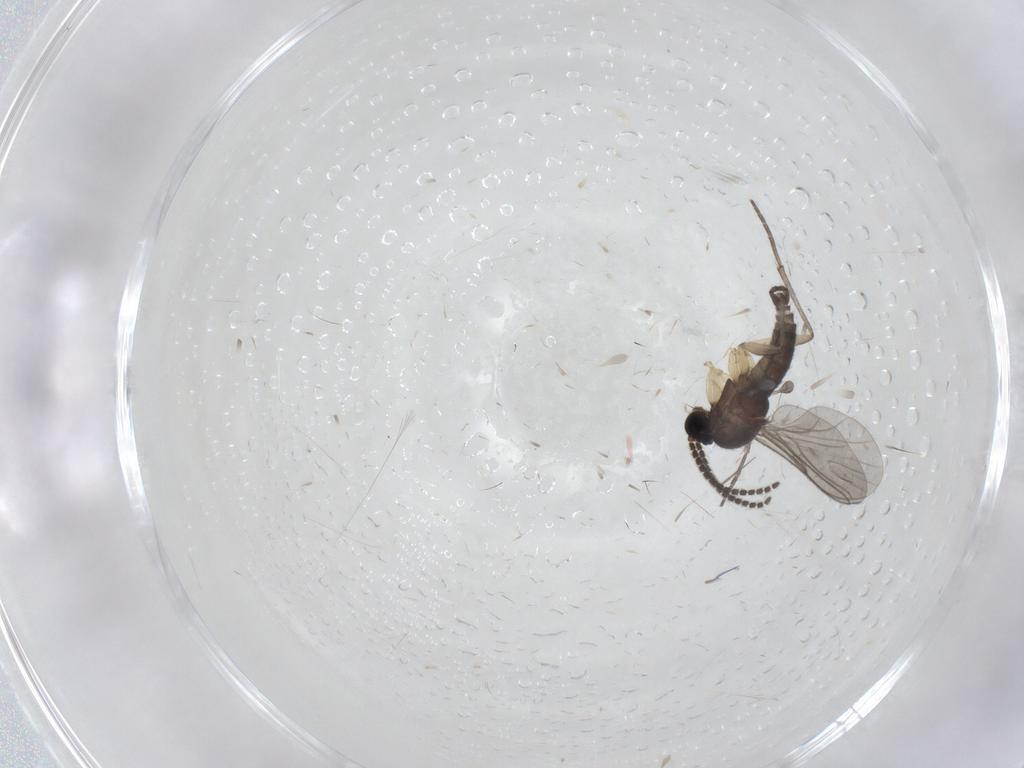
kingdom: Animalia
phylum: Arthropoda
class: Insecta
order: Diptera
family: Sciaridae
